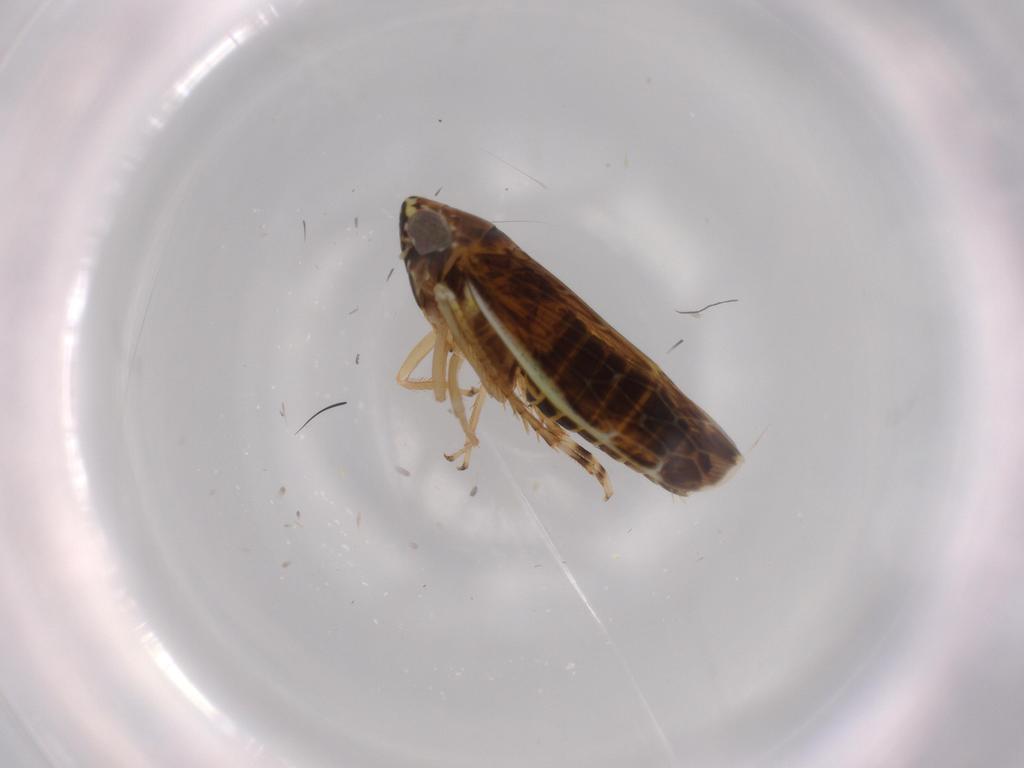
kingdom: Animalia
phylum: Arthropoda
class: Insecta
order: Hemiptera
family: Cicadellidae
